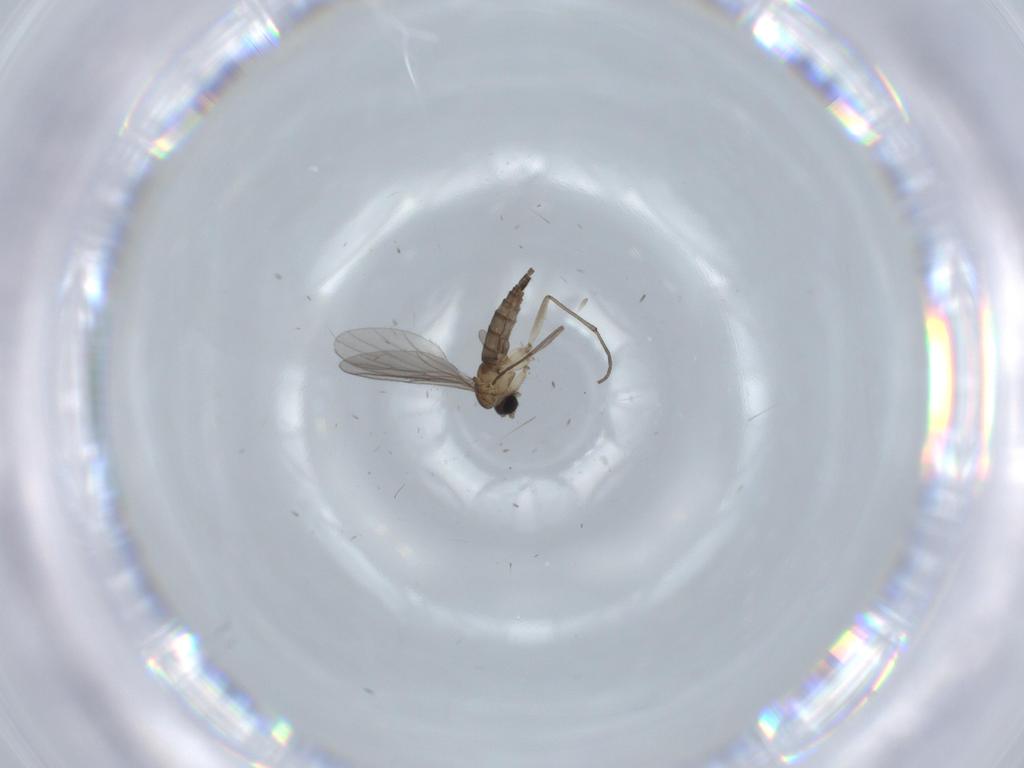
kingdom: Animalia
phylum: Arthropoda
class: Insecta
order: Diptera
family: Sciaridae
